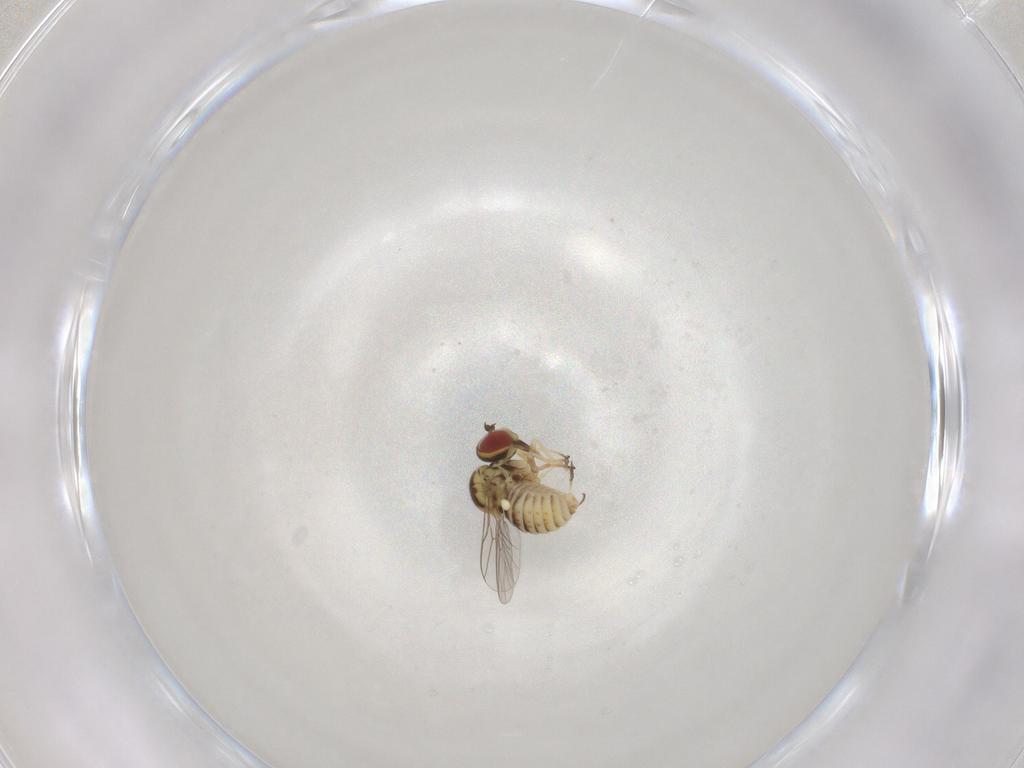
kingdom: Animalia
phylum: Arthropoda
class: Insecta
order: Diptera
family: Mythicomyiidae
